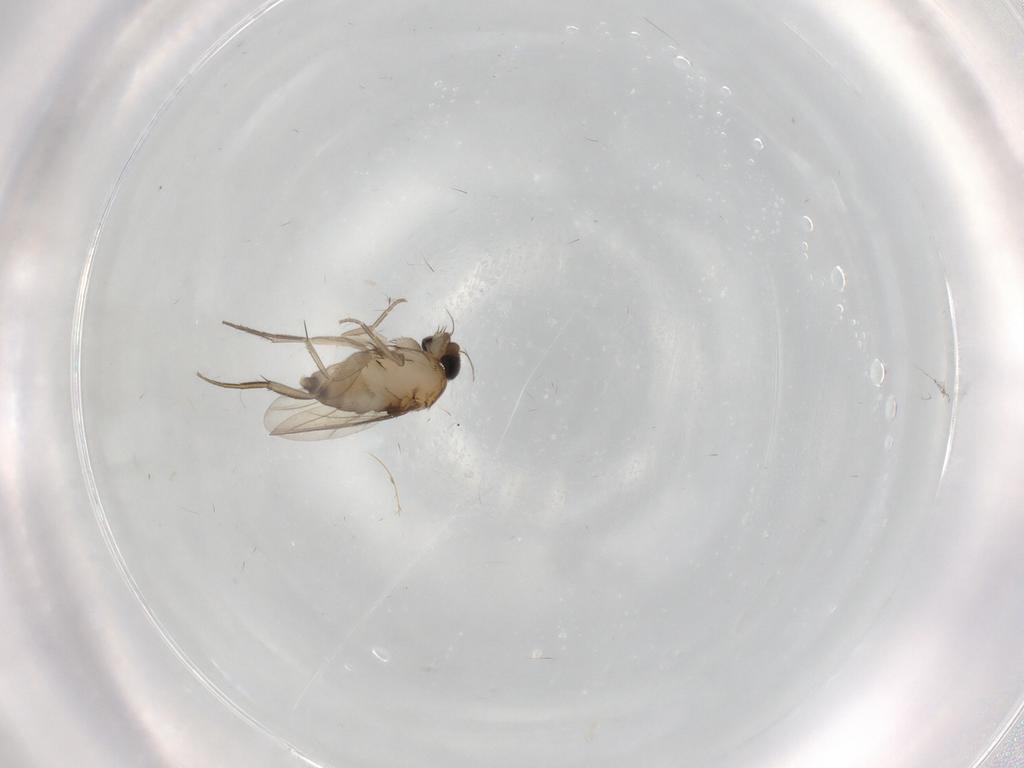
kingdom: Animalia
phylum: Arthropoda
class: Insecta
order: Diptera
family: Phoridae
